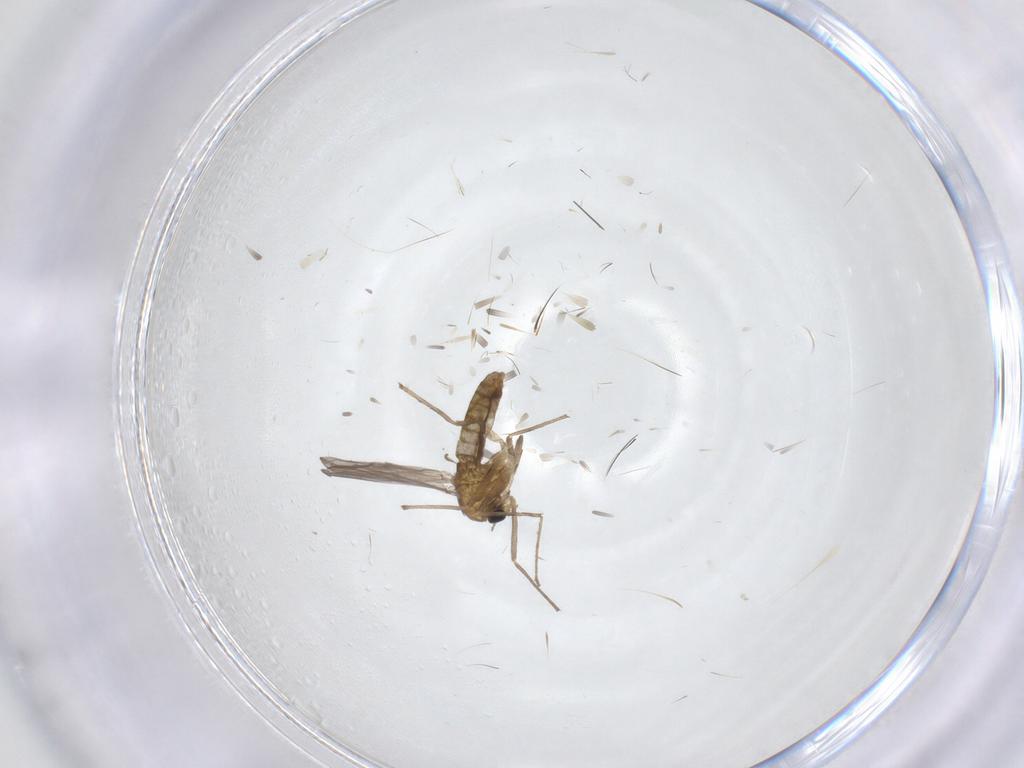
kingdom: Animalia
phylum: Arthropoda
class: Insecta
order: Diptera
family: Chironomidae
